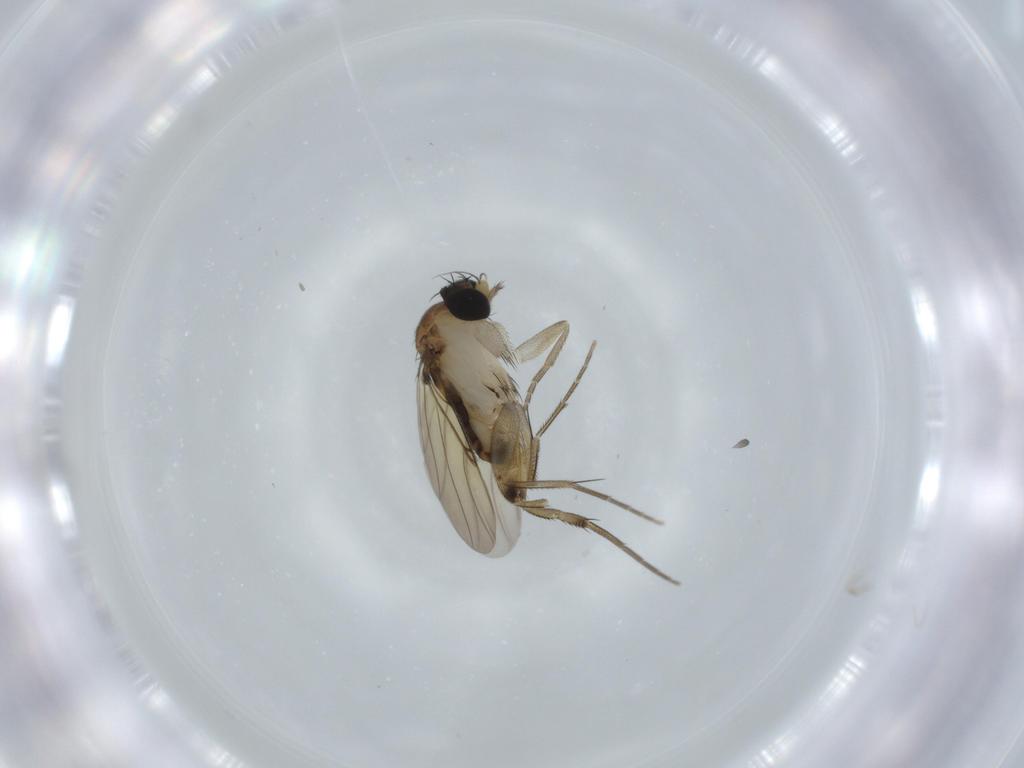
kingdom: Animalia
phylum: Arthropoda
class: Insecta
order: Diptera
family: Phoridae
